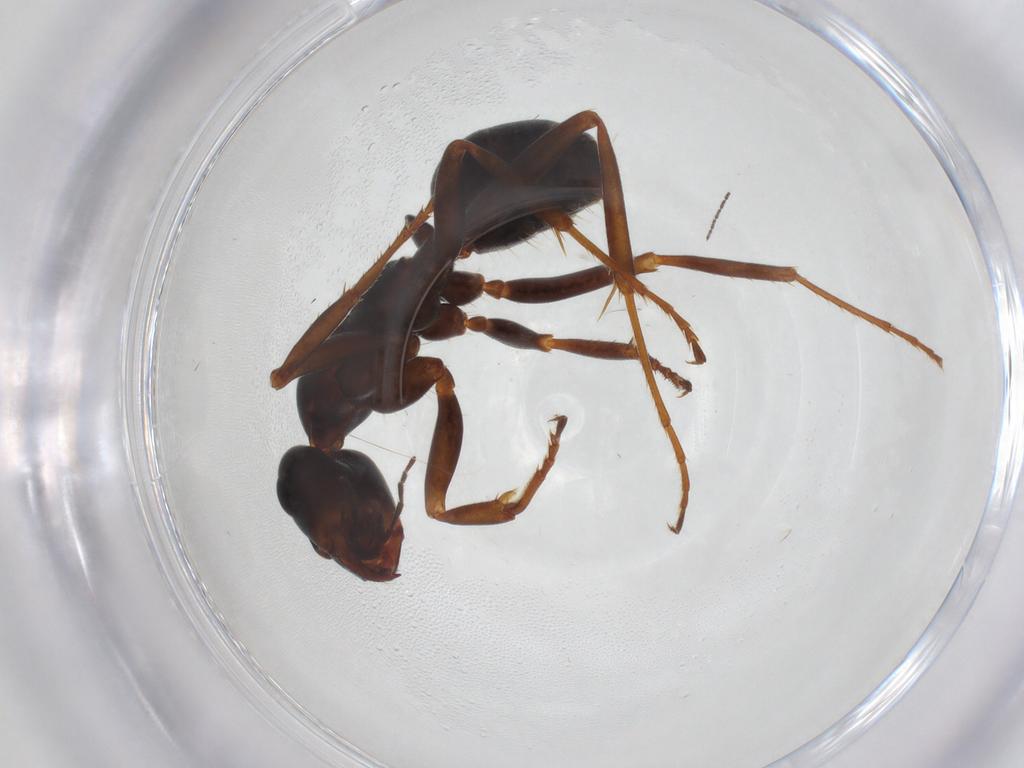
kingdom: Animalia
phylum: Arthropoda
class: Insecta
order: Hymenoptera
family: Formicidae
